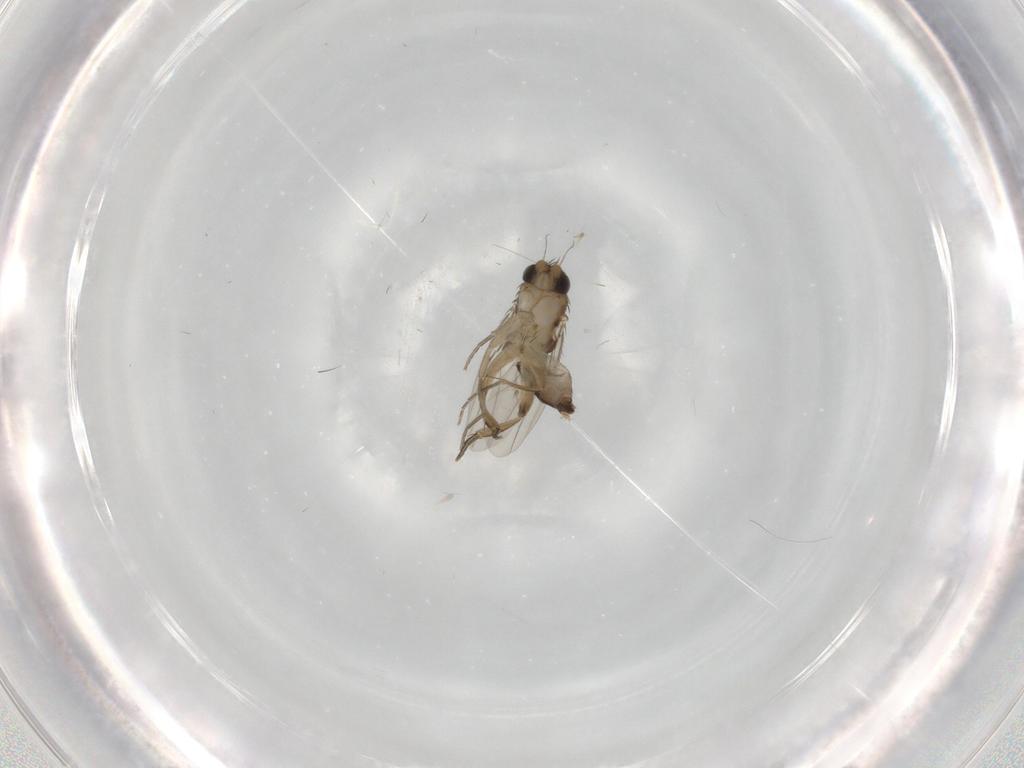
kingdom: Animalia
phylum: Arthropoda
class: Insecta
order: Diptera
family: Phoridae
